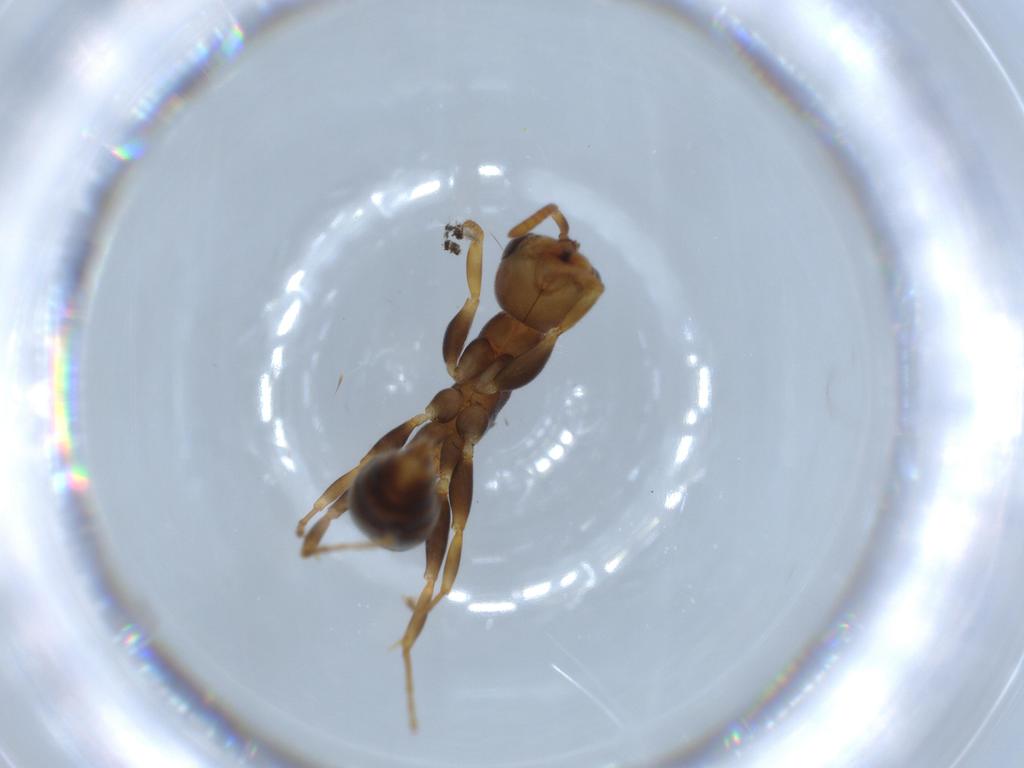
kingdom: Animalia
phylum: Arthropoda
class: Insecta
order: Hymenoptera
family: Formicidae
